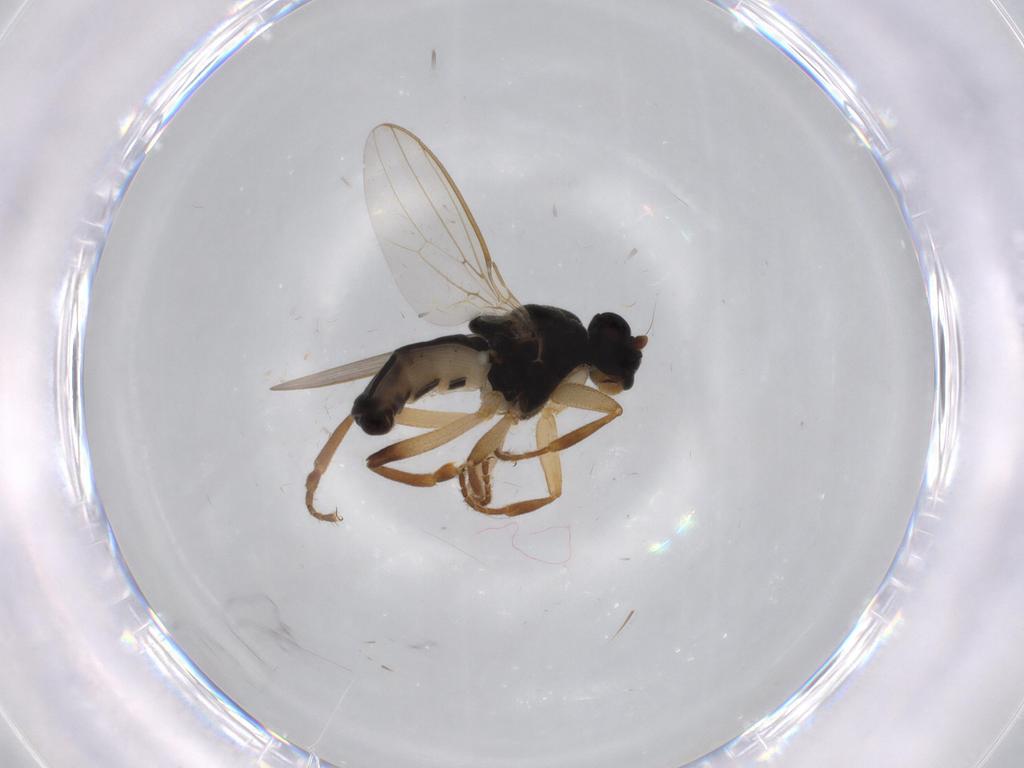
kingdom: Animalia
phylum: Arthropoda
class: Insecta
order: Diptera
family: Sphaeroceridae
